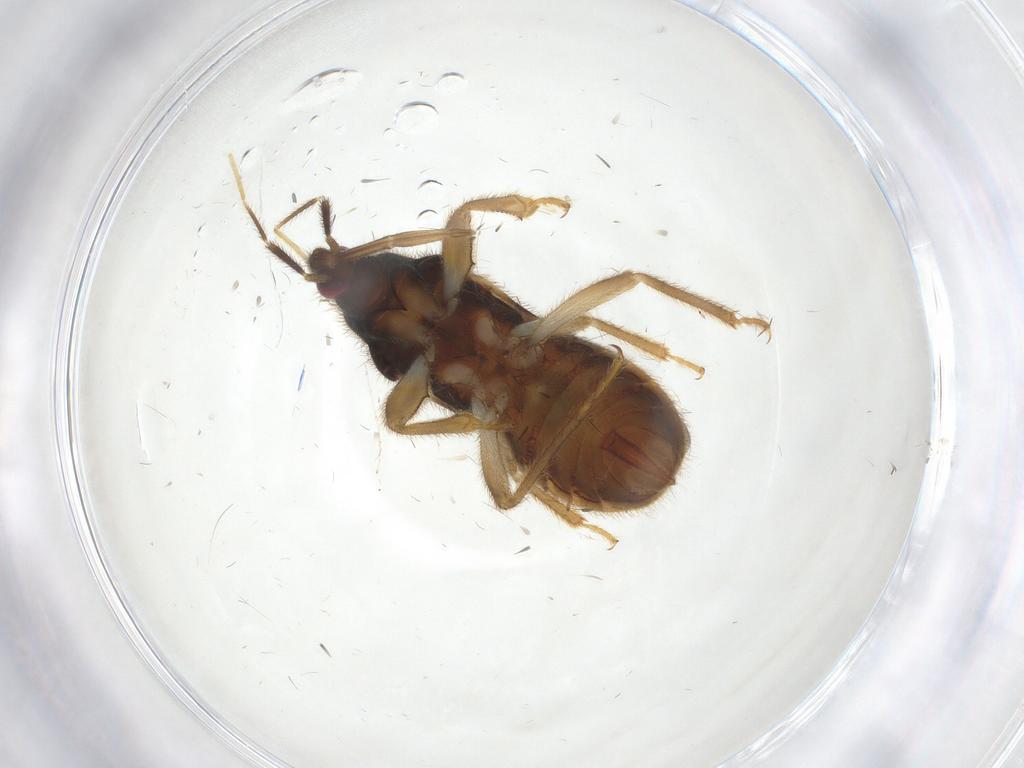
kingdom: Animalia
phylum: Arthropoda
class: Insecta
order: Hemiptera
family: Nabidae
